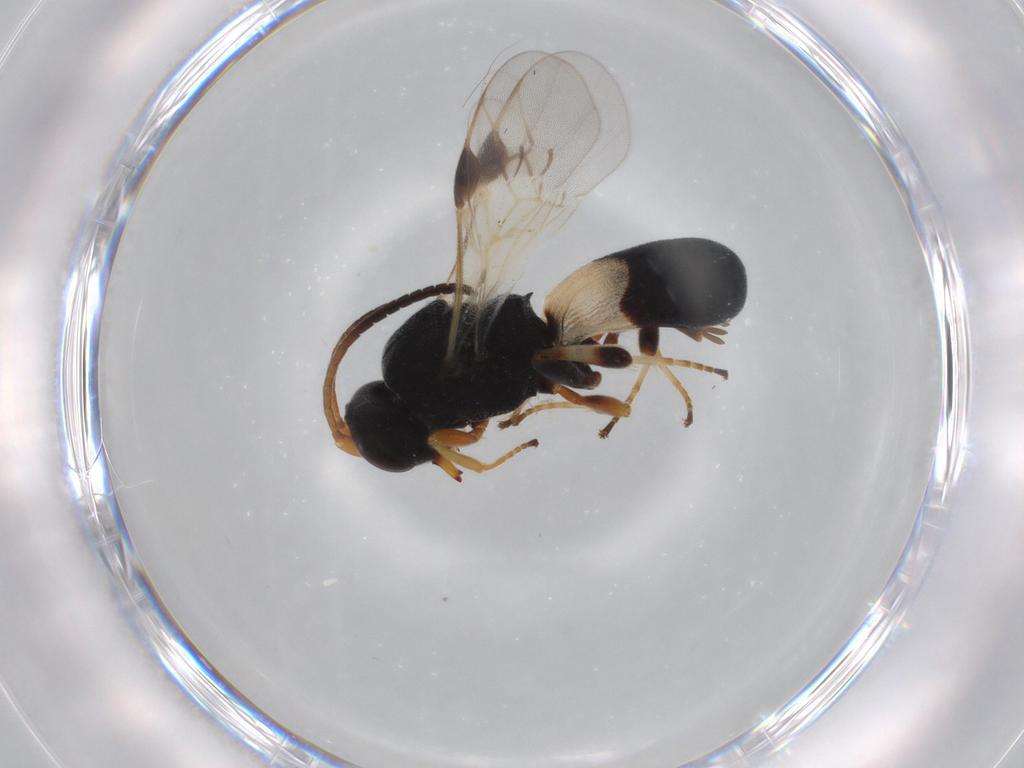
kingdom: Animalia
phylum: Arthropoda
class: Insecta
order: Hymenoptera
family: Braconidae
